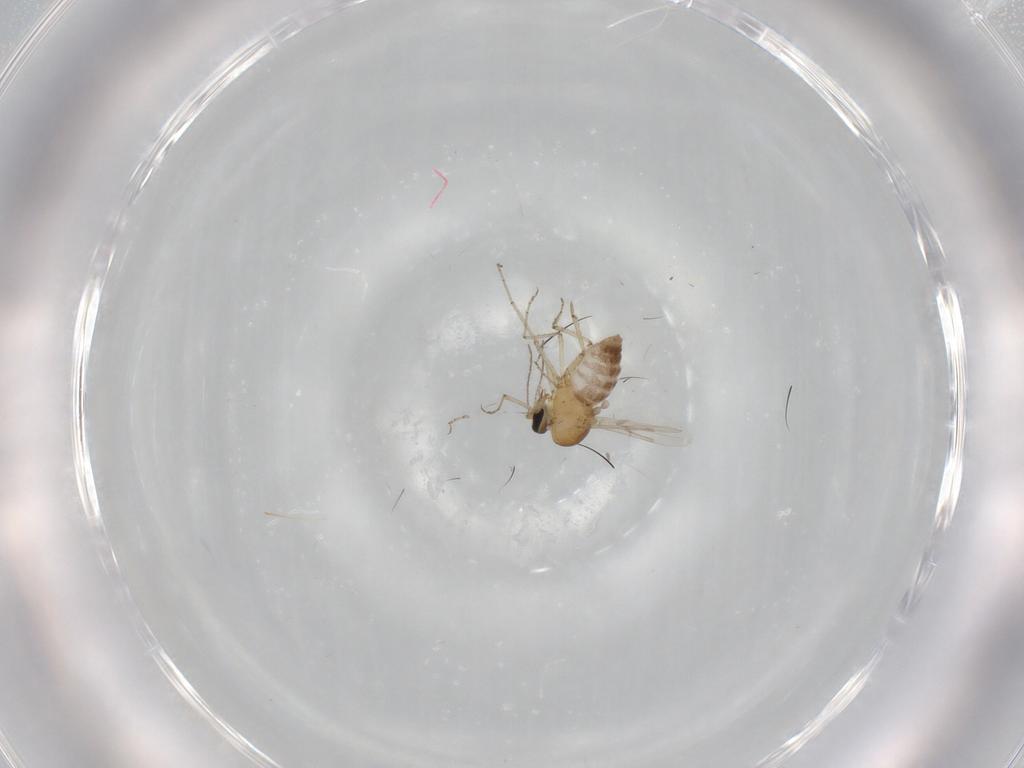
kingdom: Animalia
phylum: Arthropoda
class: Insecta
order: Diptera
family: Ceratopogonidae
